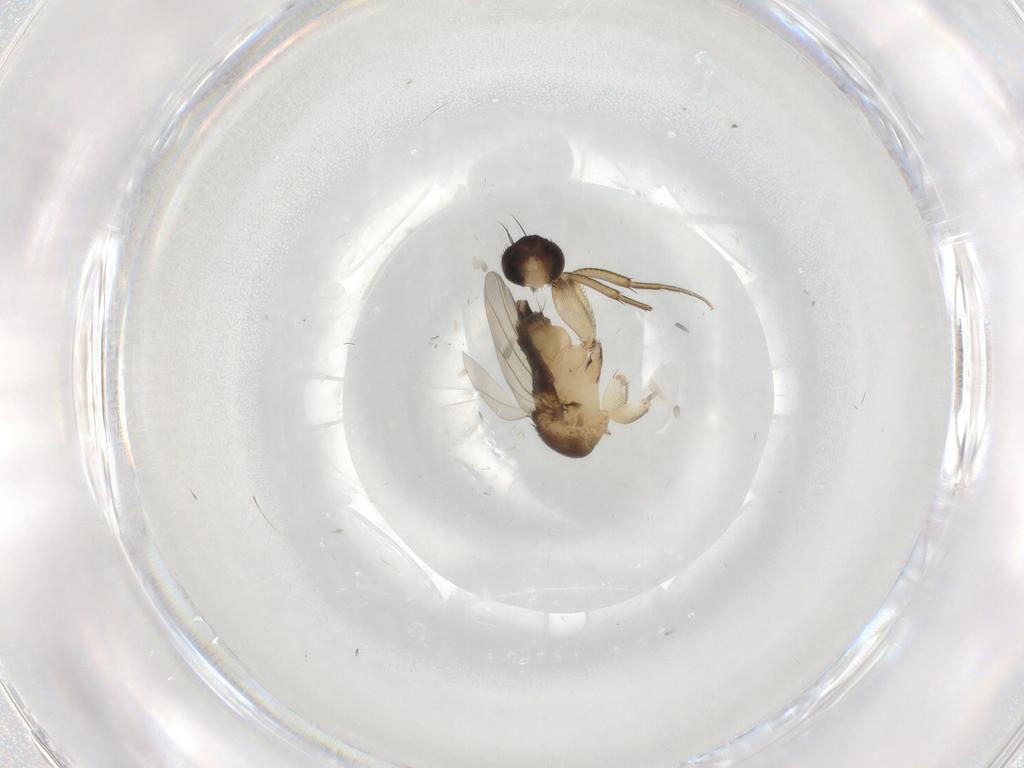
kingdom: Animalia
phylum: Arthropoda
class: Insecta
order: Diptera
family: Phoridae
